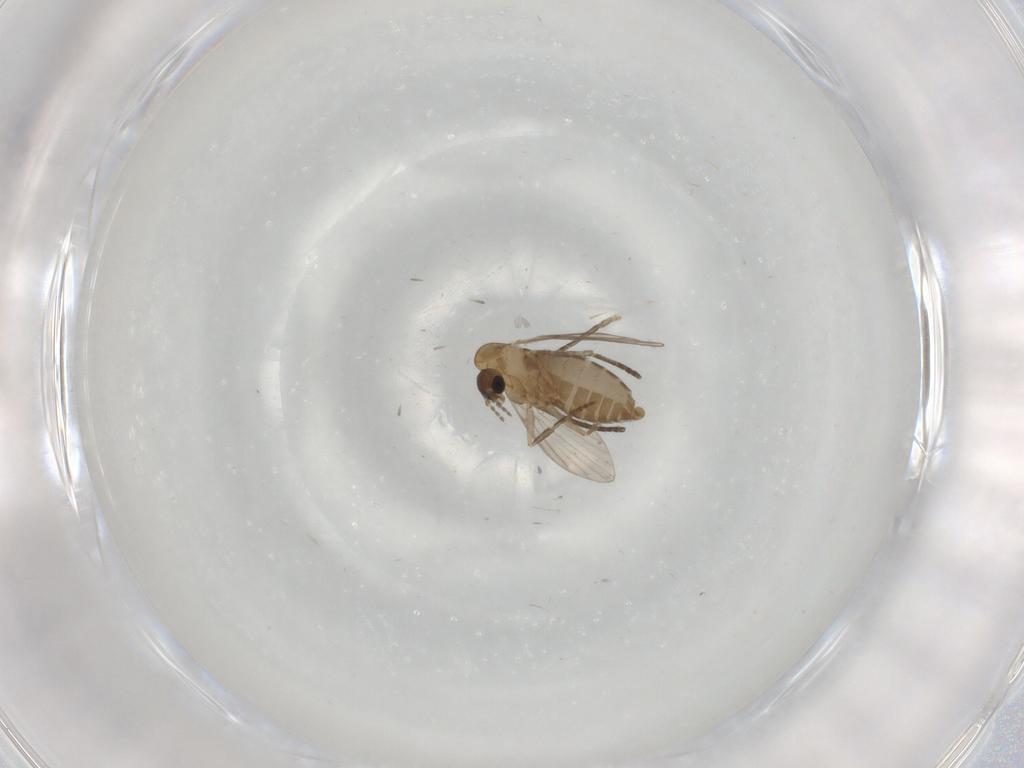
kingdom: Animalia
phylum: Arthropoda
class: Insecta
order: Diptera
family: Psychodidae
